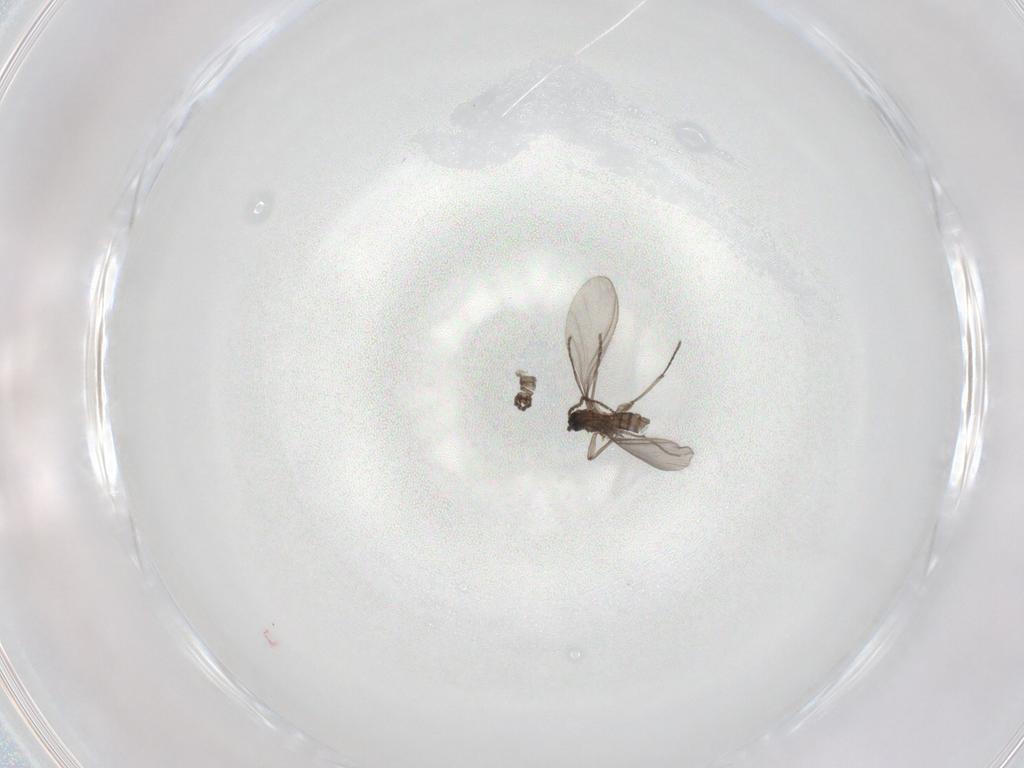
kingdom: Animalia
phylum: Arthropoda
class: Insecta
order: Diptera
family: Sciaridae
